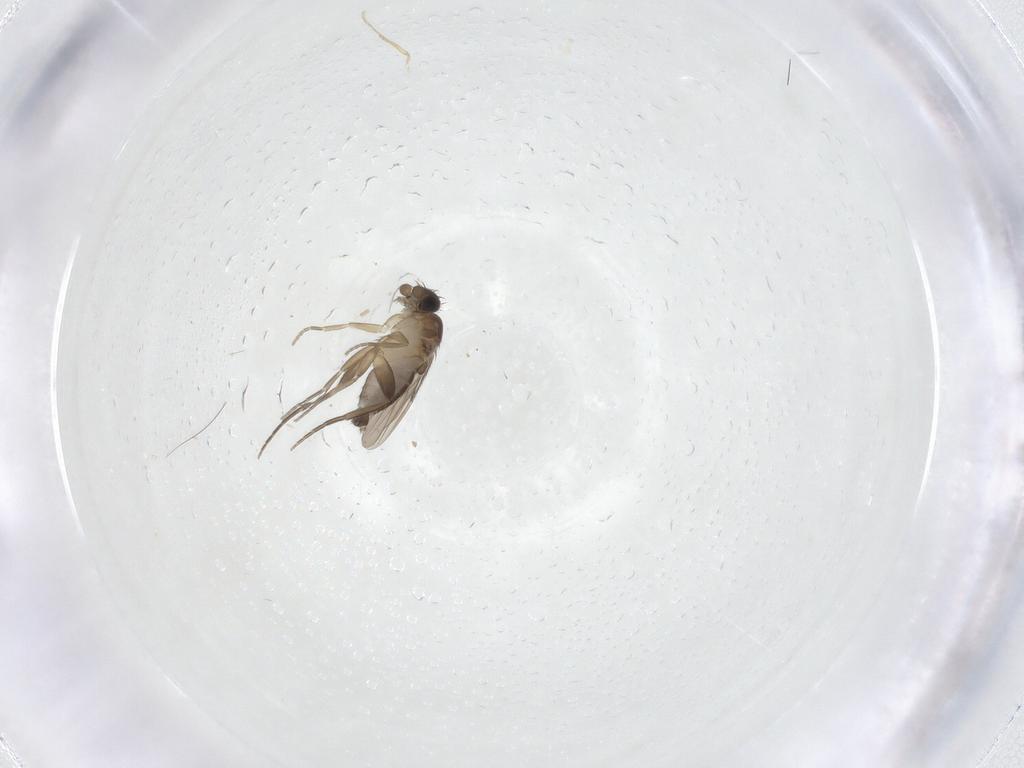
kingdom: Animalia
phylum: Arthropoda
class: Insecta
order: Diptera
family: Phoridae
